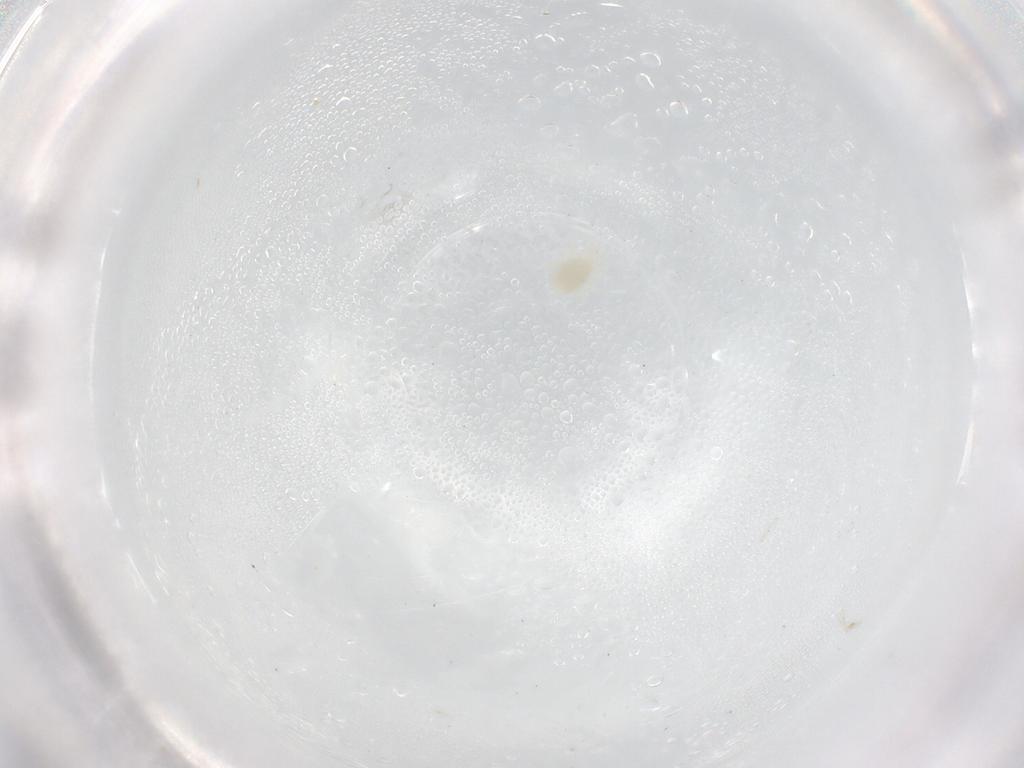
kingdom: Animalia
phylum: Arthropoda
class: Arachnida
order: Mesostigmata
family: Melicharidae
